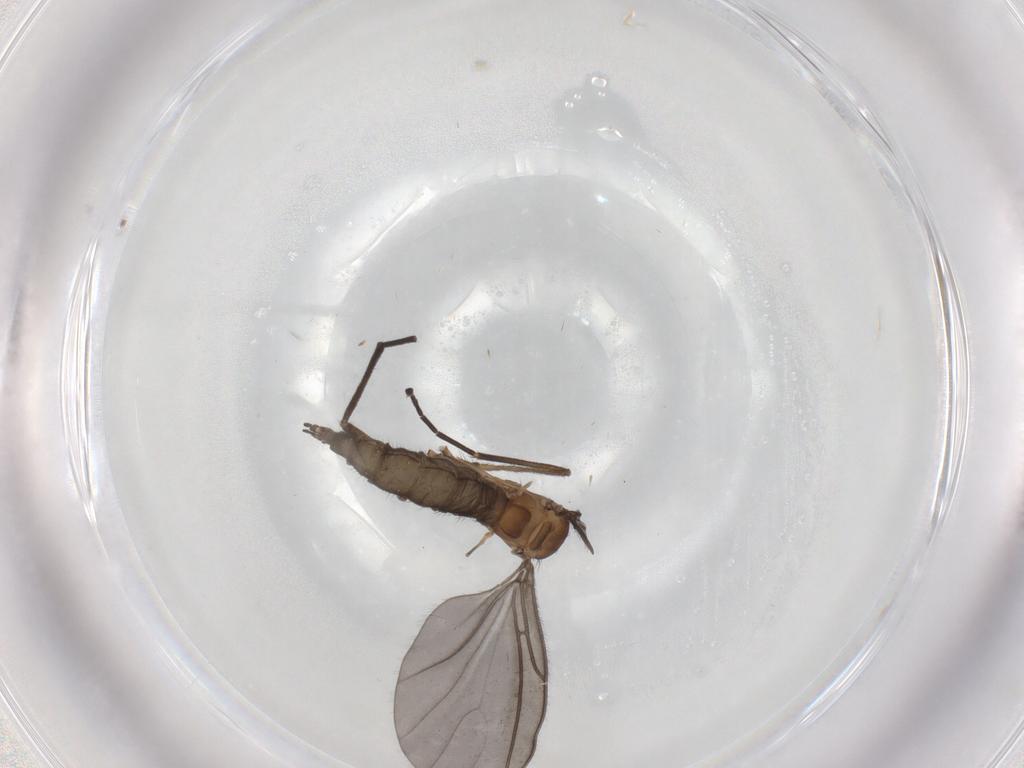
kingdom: Animalia
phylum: Arthropoda
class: Insecta
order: Diptera
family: Sciaridae
